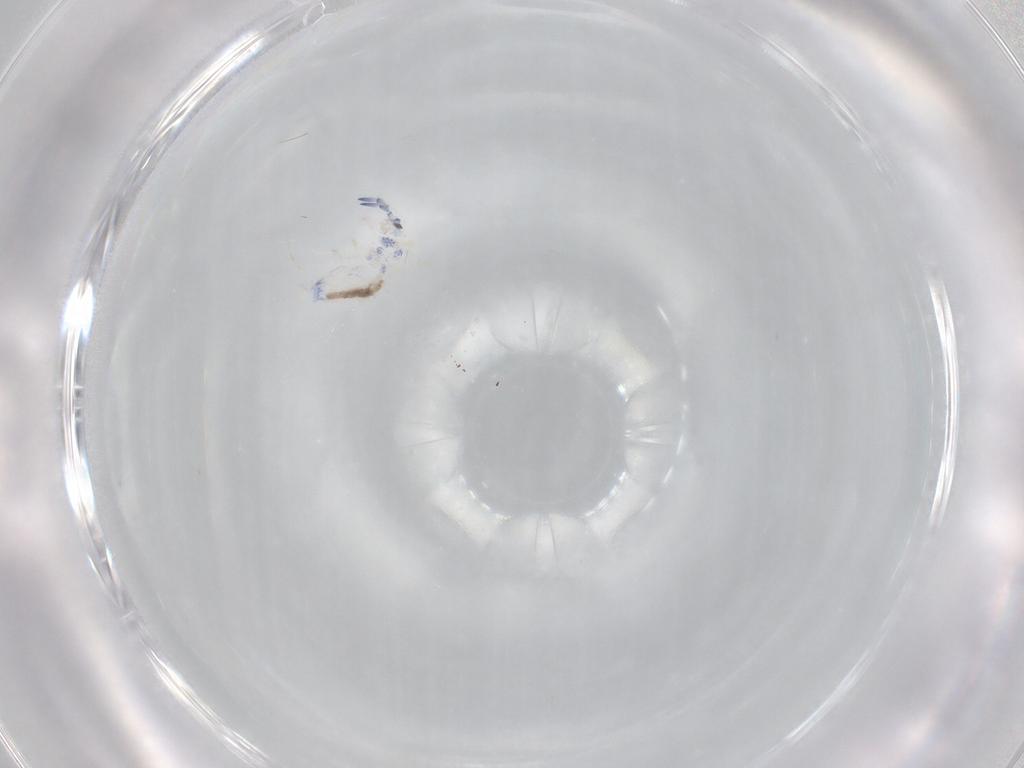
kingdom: Animalia
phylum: Arthropoda
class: Collembola
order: Entomobryomorpha
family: Entomobryidae
